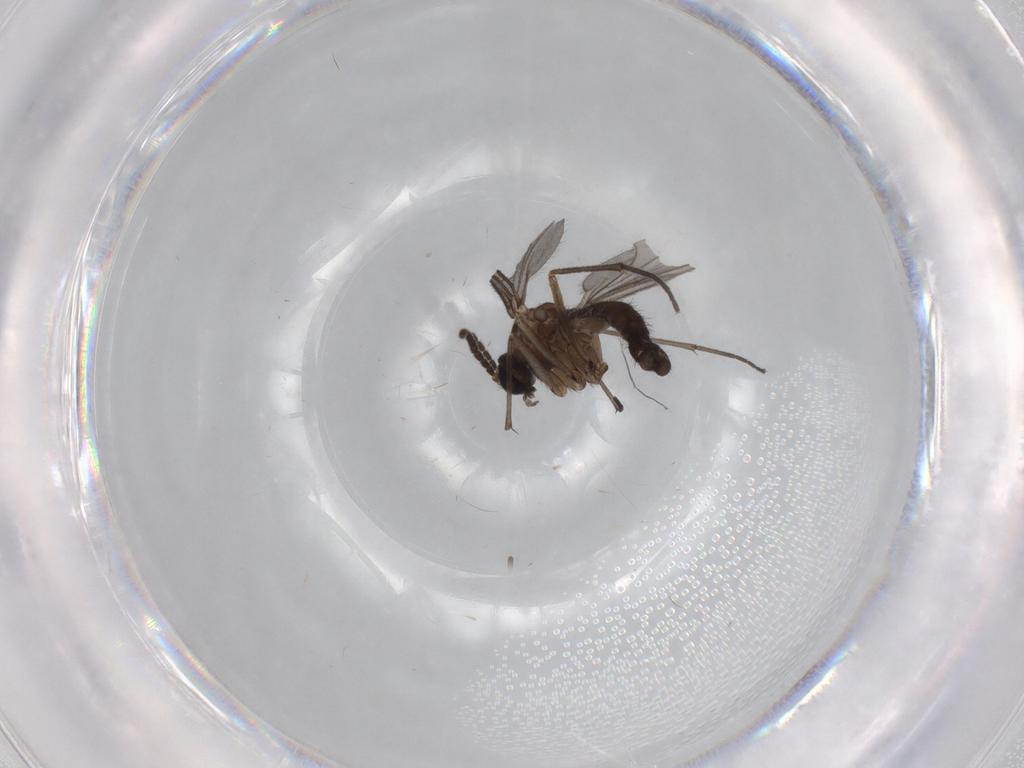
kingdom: Animalia
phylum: Arthropoda
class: Insecta
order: Diptera
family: Sciaridae
